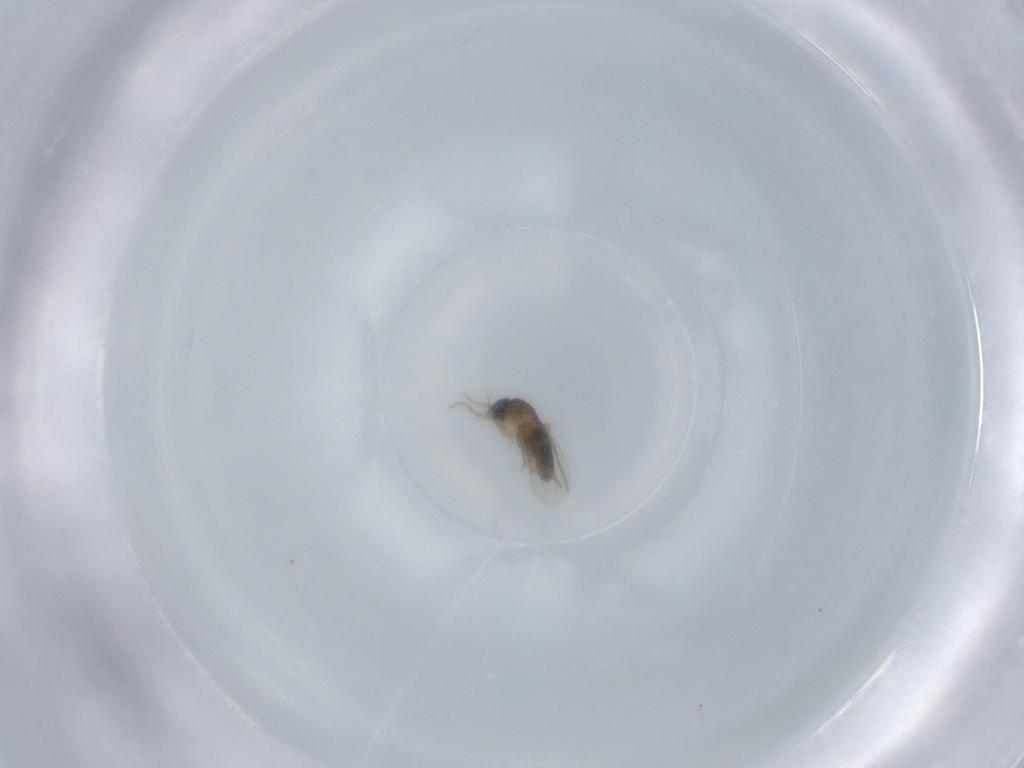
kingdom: Animalia
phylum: Arthropoda
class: Insecta
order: Diptera
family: Phoridae
